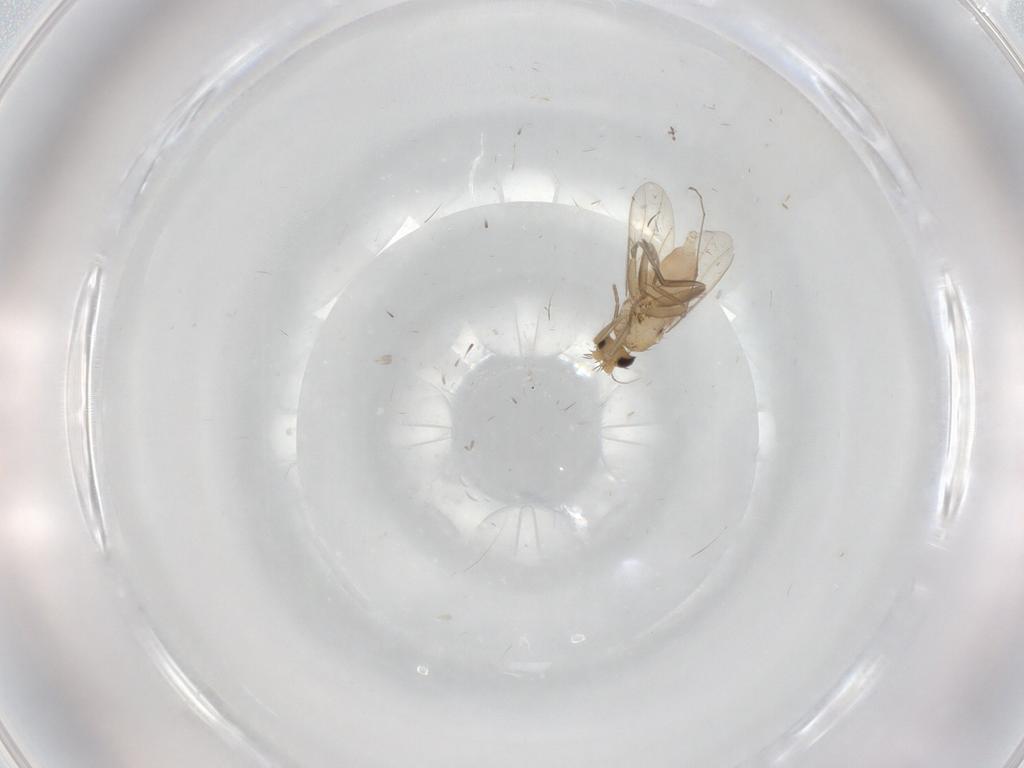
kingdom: Animalia
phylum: Arthropoda
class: Insecta
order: Diptera
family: Phoridae
